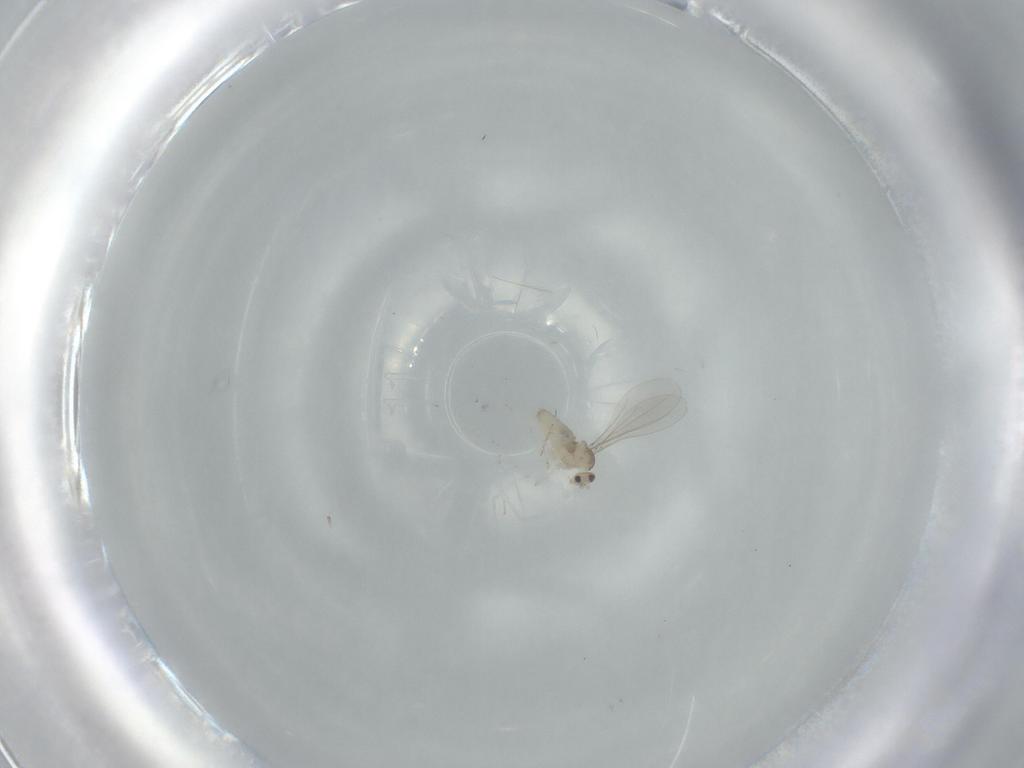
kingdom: Animalia
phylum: Arthropoda
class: Insecta
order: Diptera
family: Cecidomyiidae
